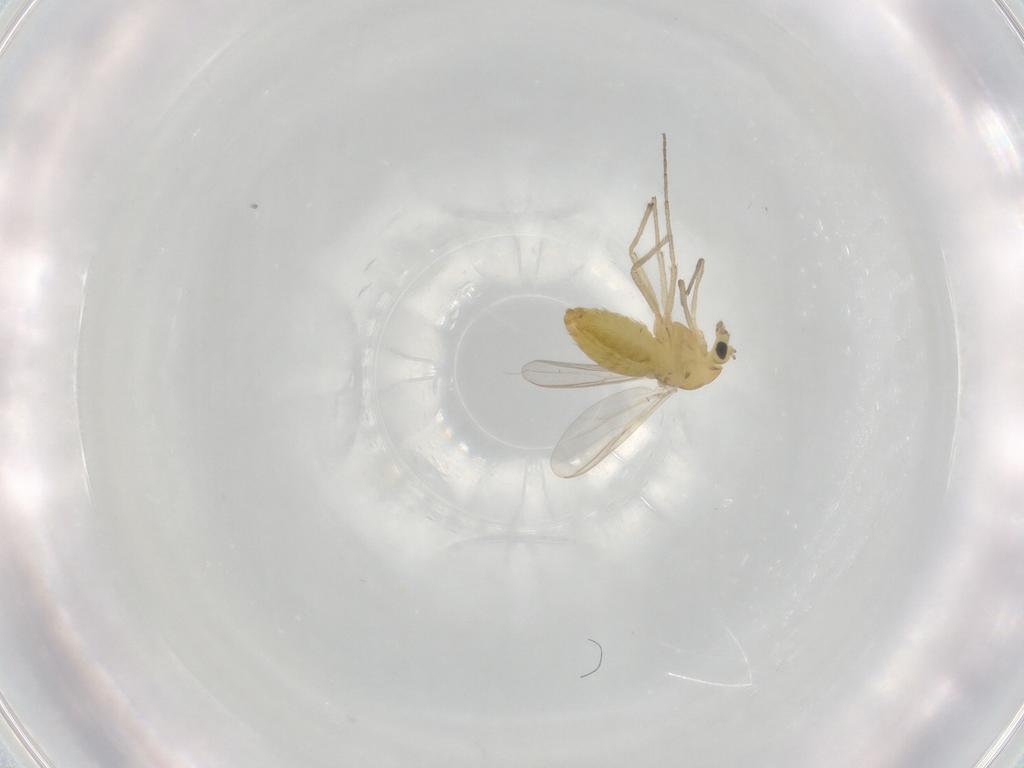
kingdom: Animalia
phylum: Arthropoda
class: Insecta
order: Diptera
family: Chironomidae
